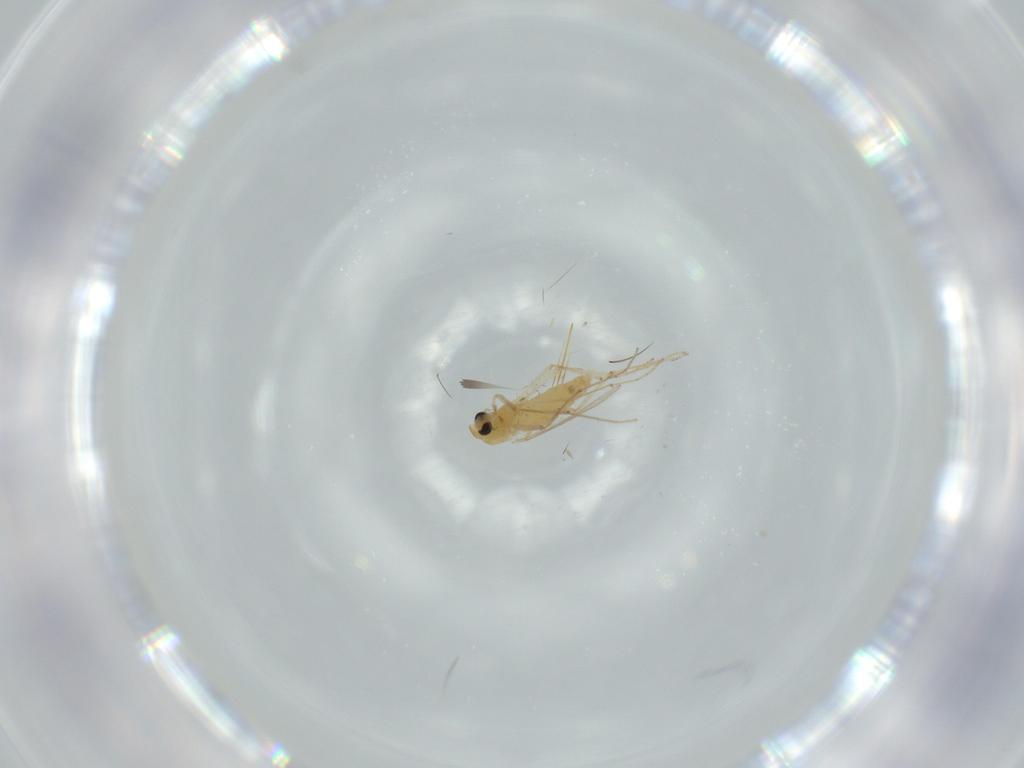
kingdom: Animalia
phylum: Arthropoda
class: Insecta
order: Diptera
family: Chironomidae
